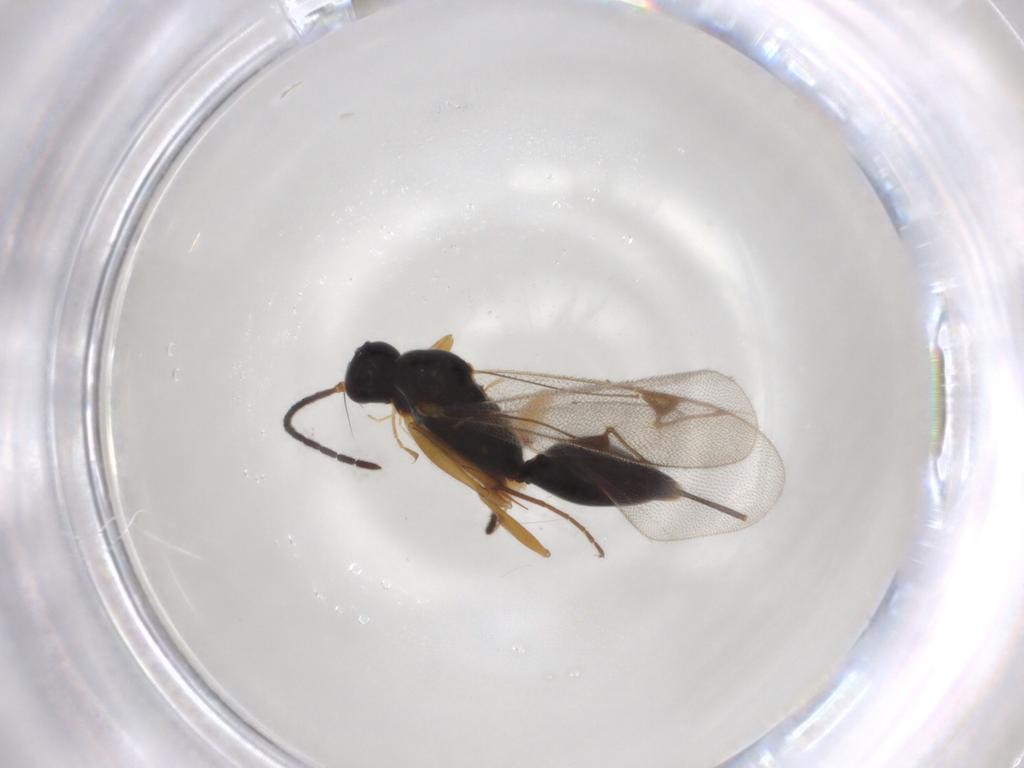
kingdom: Animalia
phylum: Arthropoda
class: Insecta
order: Hymenoptera
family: Proctotrupidae
